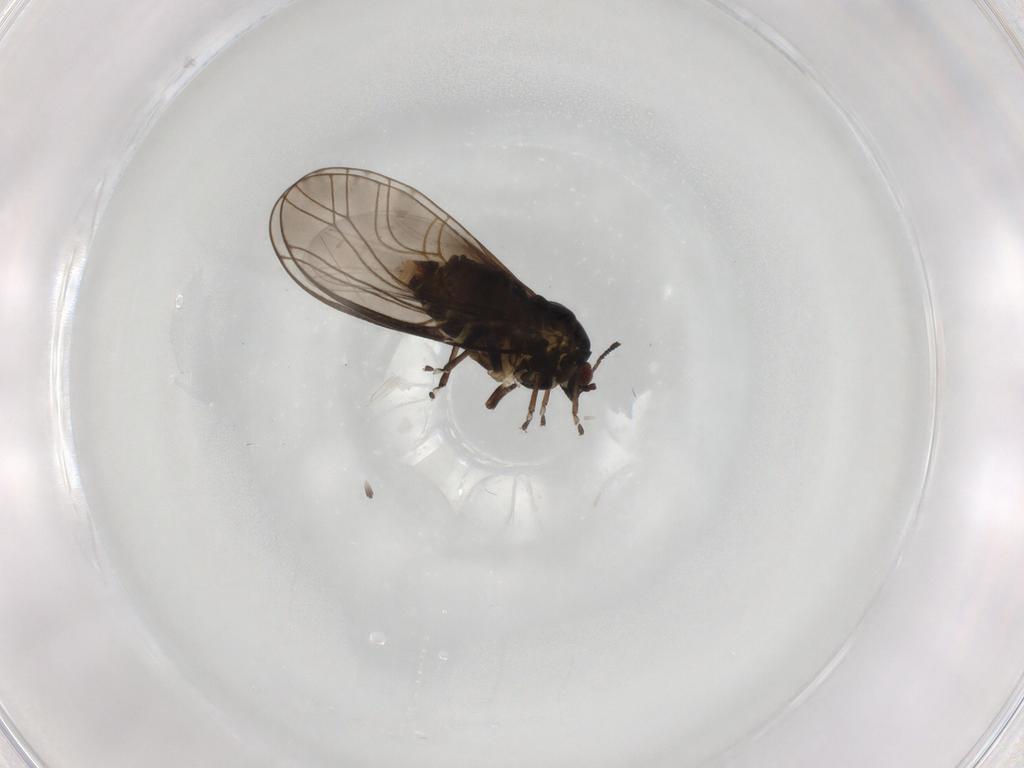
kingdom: Animalia
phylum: Arthropoda
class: Insecta
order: Hemiptera
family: Psylloidea_incertae_sedis
